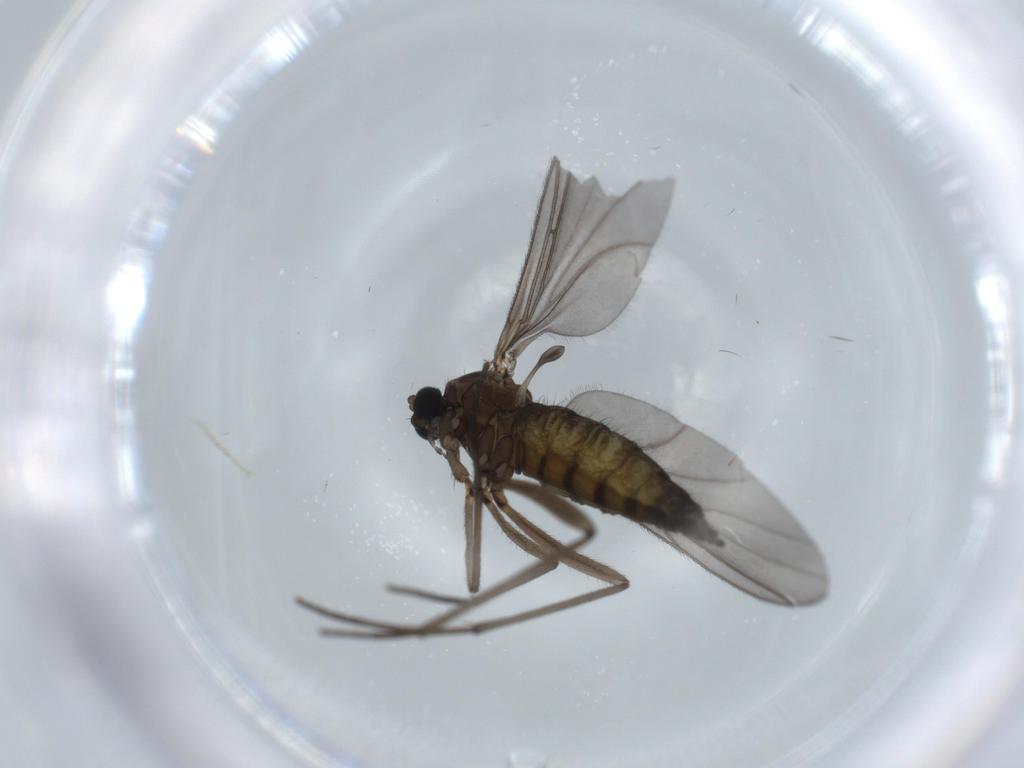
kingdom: Animalia
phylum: Arthropoda
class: Insecta
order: Diptera
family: Sciaridae
